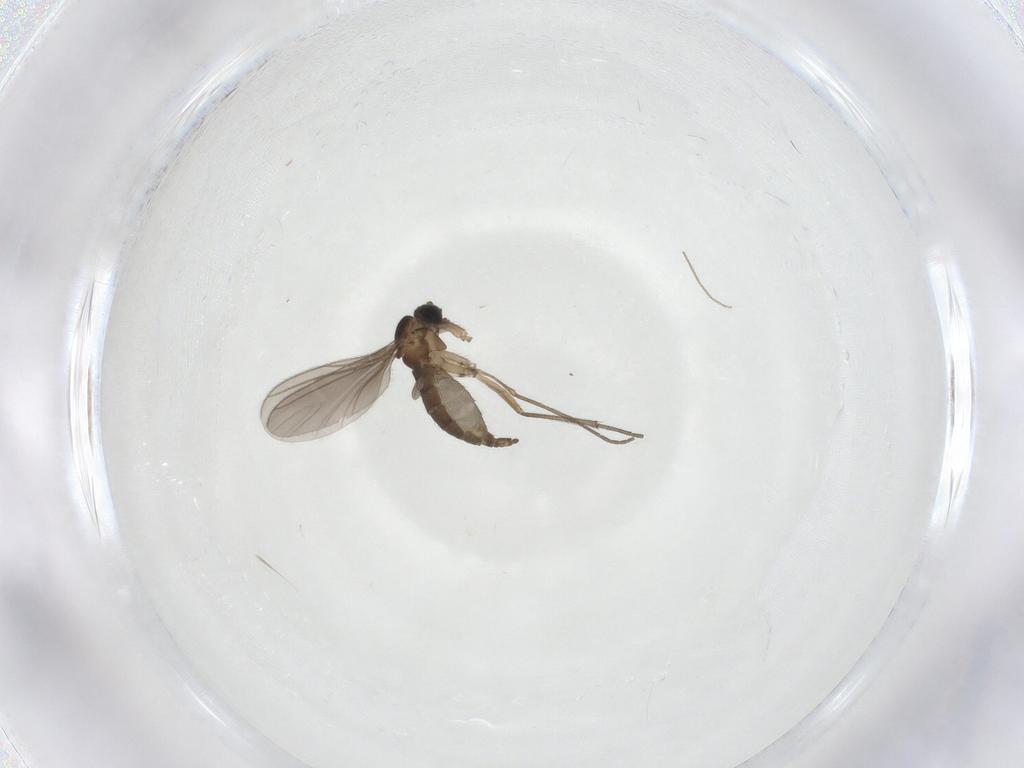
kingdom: Animalia
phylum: Arthropoda
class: Insecta
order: Diptera
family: Sciaridae
